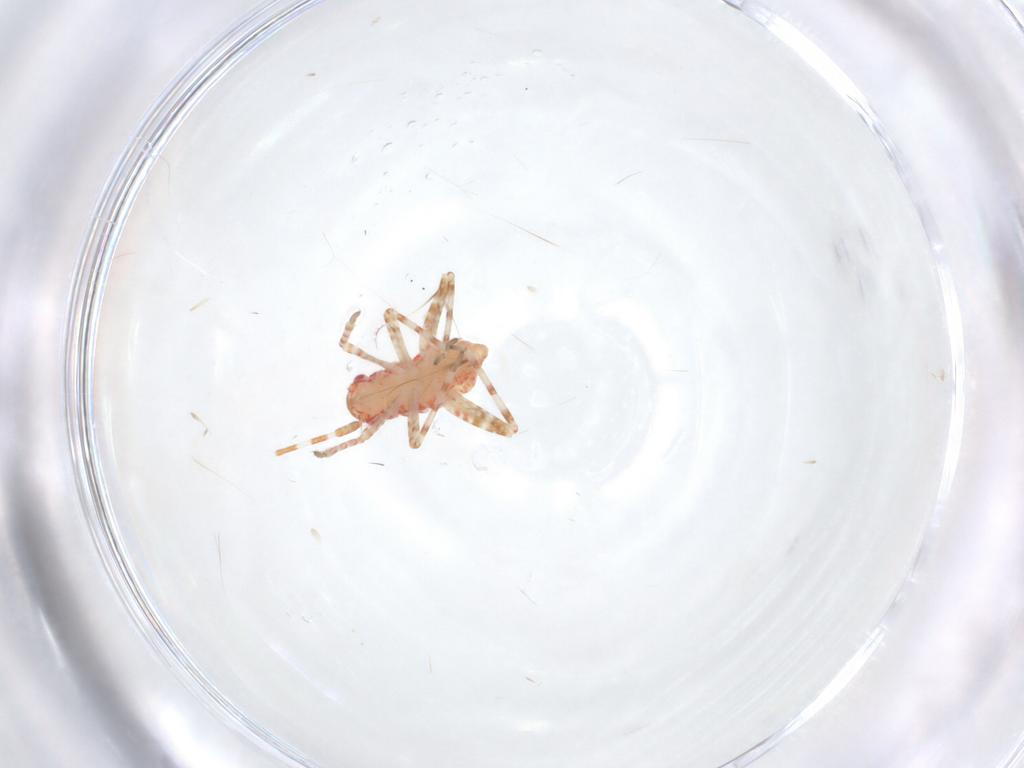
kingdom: Animalia
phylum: Arthropoda
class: Insecta
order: Hemiptera
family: Miridae
